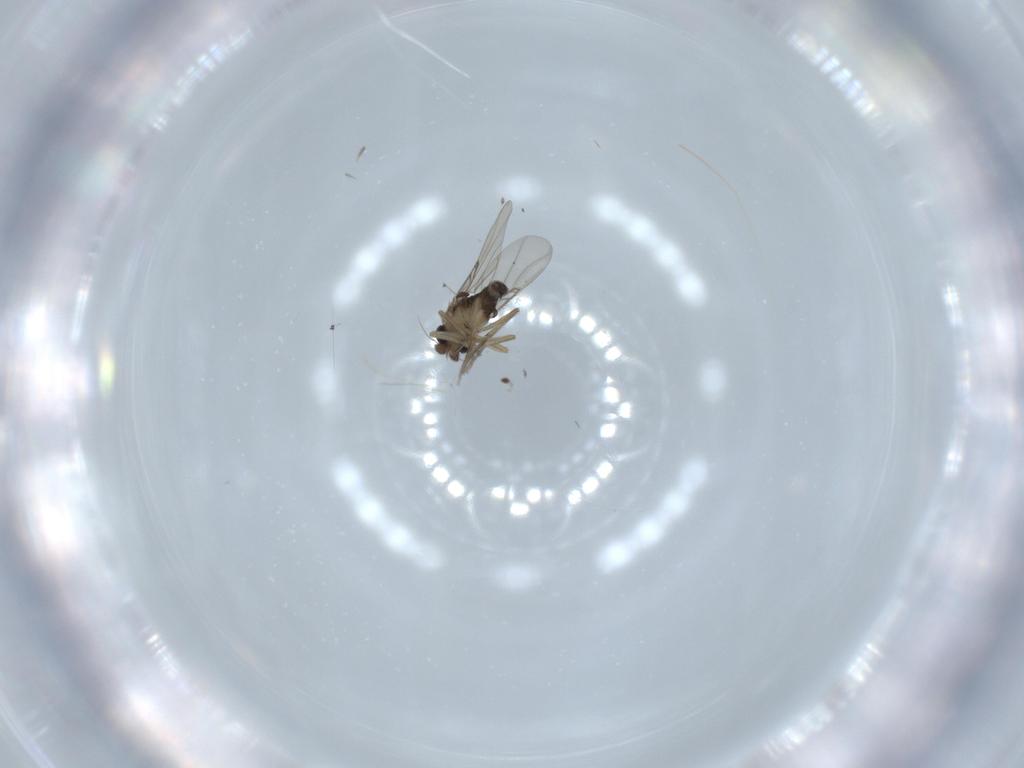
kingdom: Animalia
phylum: Arthropoda
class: Insecta
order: Diptera
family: Phoridae
